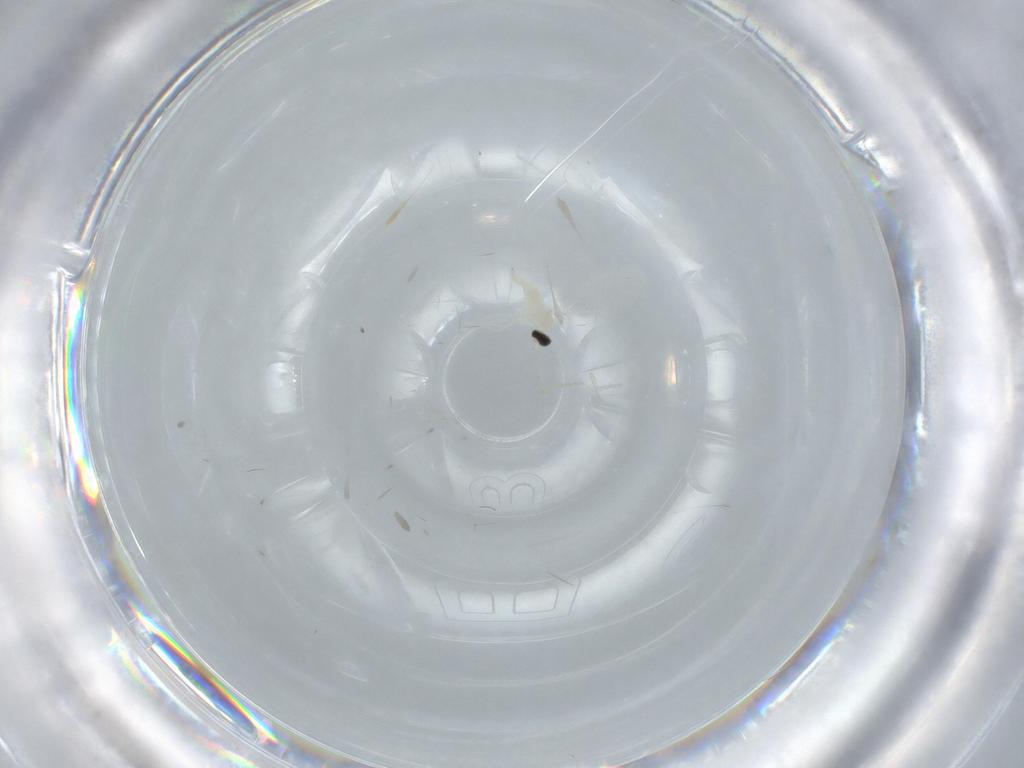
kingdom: Animalia
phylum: Arthropoda
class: Insecta
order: Diptera
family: Cecidomyiidae
